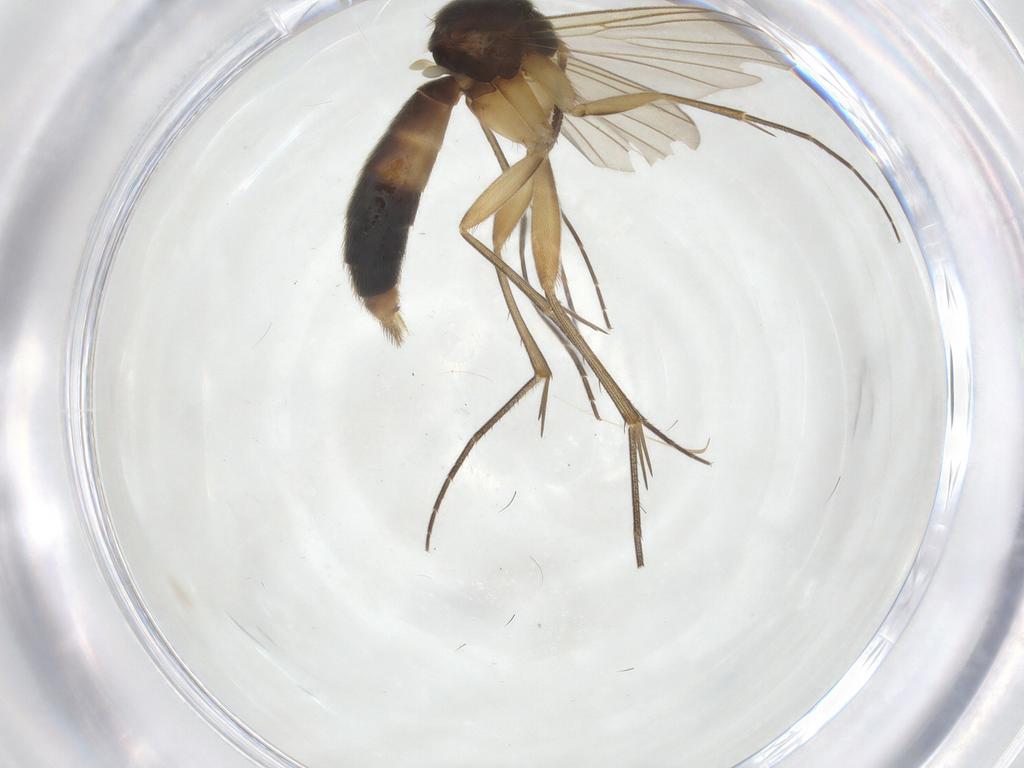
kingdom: Animalia
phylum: Arthropoda
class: Insecta
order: Diptera
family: Mycetophilidae
